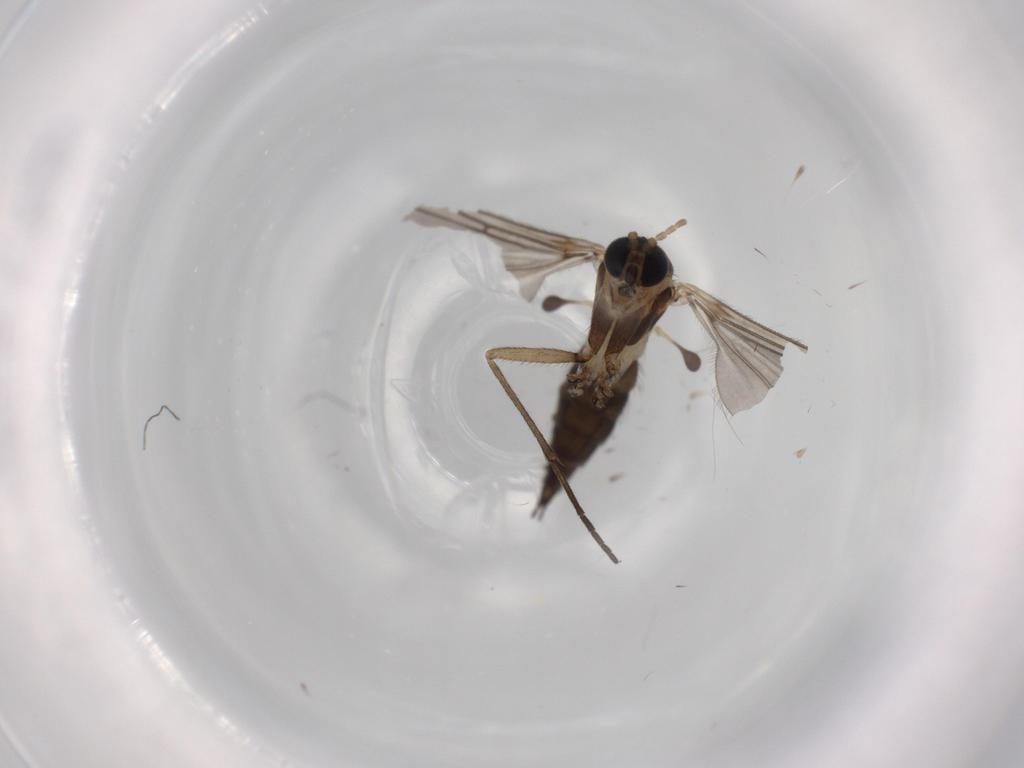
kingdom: Animalia
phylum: Arthropoda
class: Insecta
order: Diptera
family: Sciaridae
